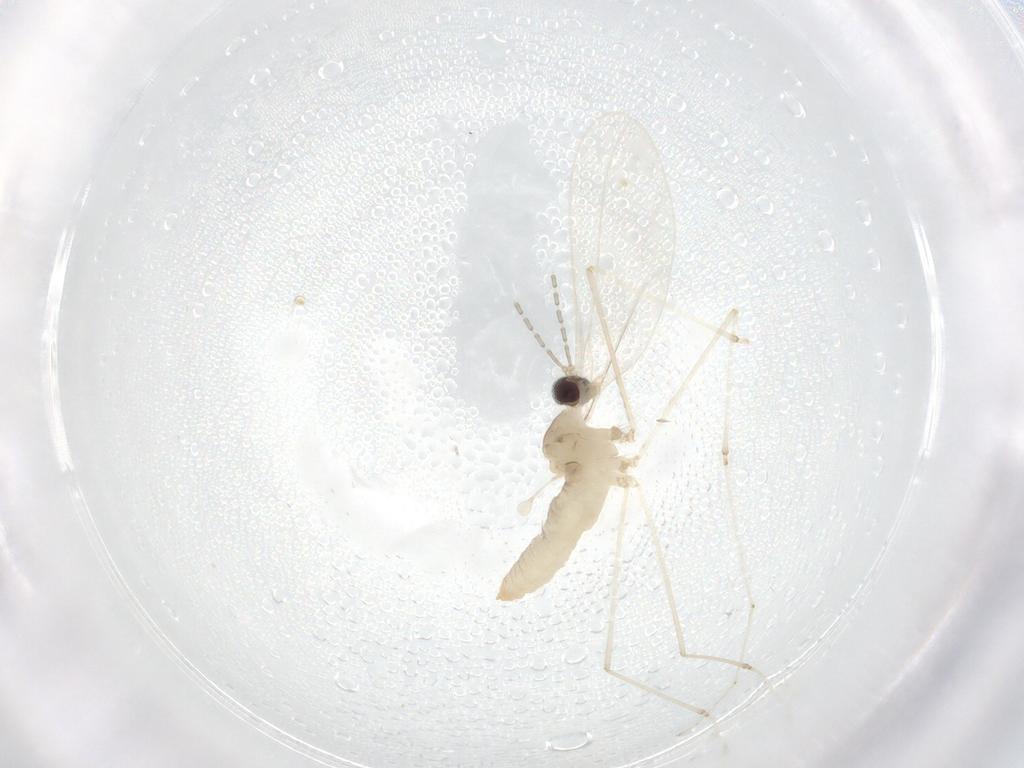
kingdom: Animalia
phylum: Arthropoda
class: Insecta
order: Diptera
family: Cecidomyiidae
